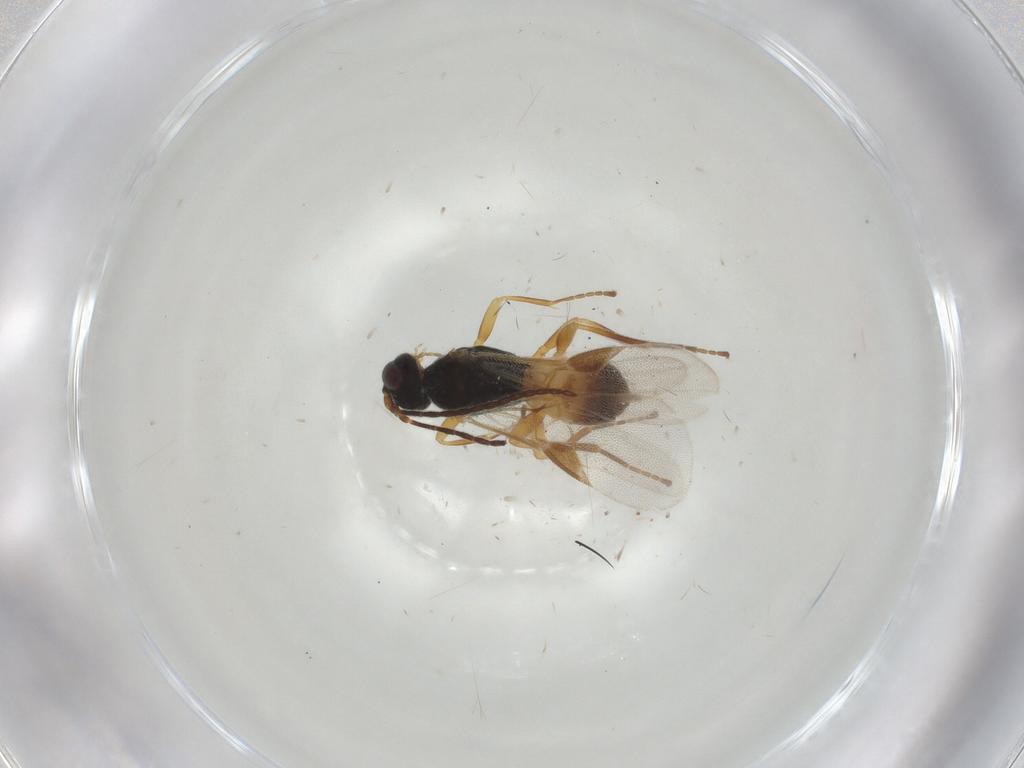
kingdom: Animalia
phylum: Arthropoda
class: Insecta
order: Hymenoptera
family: Braconidae
